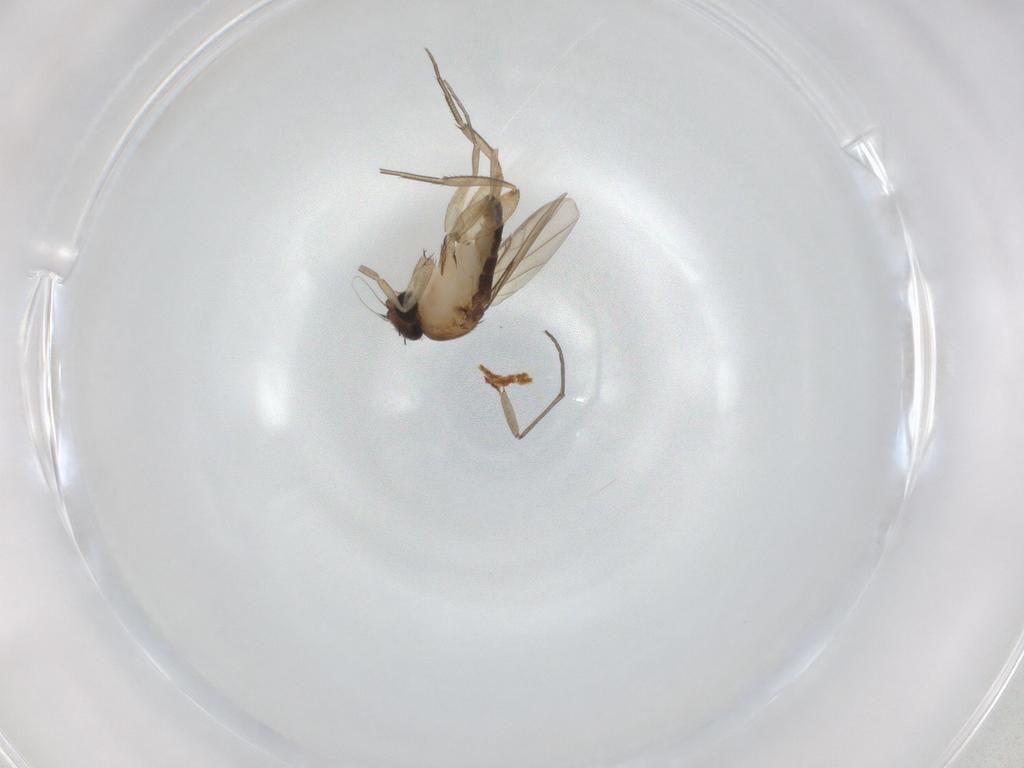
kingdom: Animalia
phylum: Arthropoda
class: Insecta
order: Diptera
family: Phoridae
